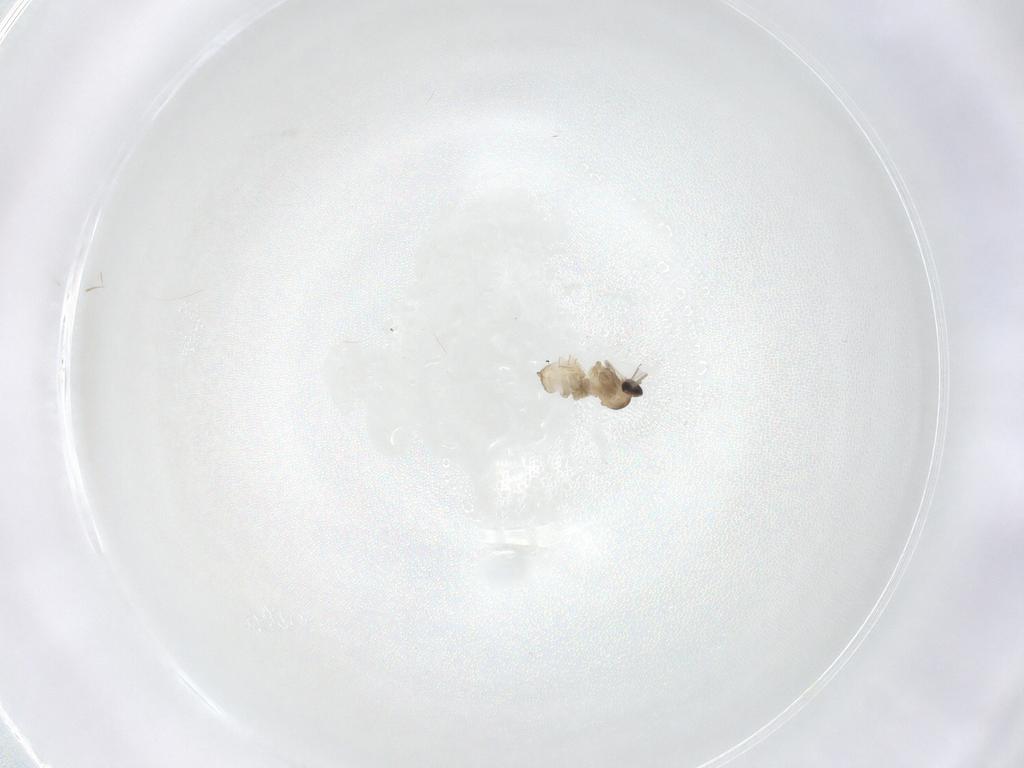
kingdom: Animalia
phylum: Arthropoda
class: Insecta
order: Diptera
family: Cecidomyiidae
